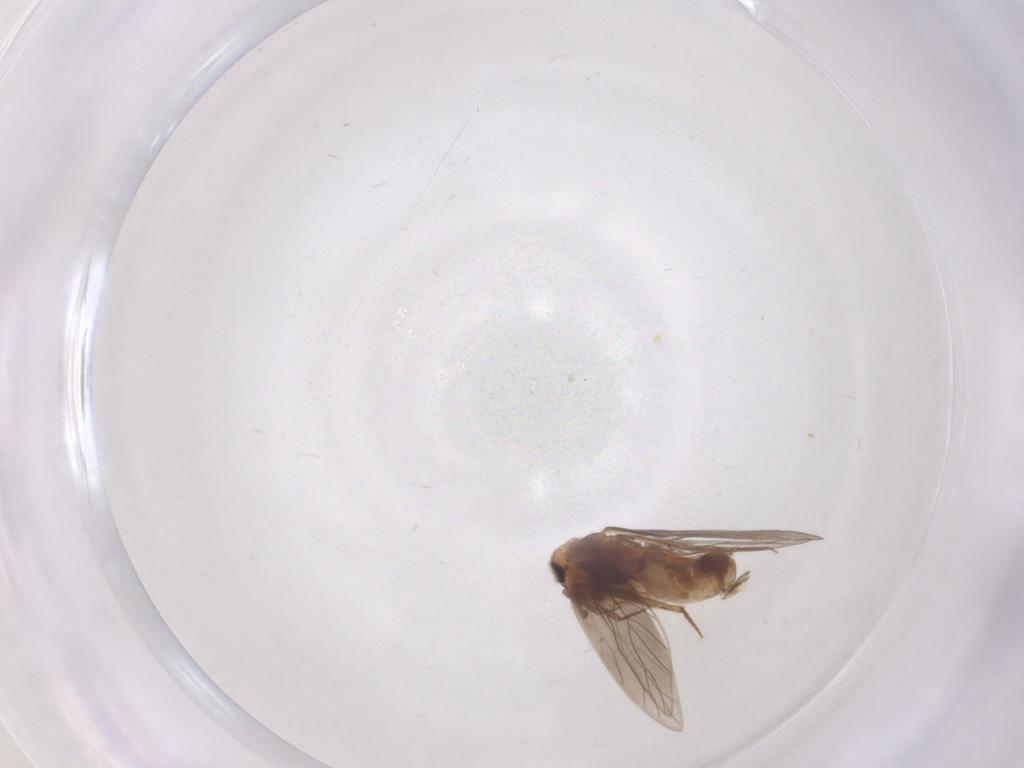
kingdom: Animalia
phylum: Arthropoda
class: Insecta
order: Psocodea
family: Lepidopsocidae
